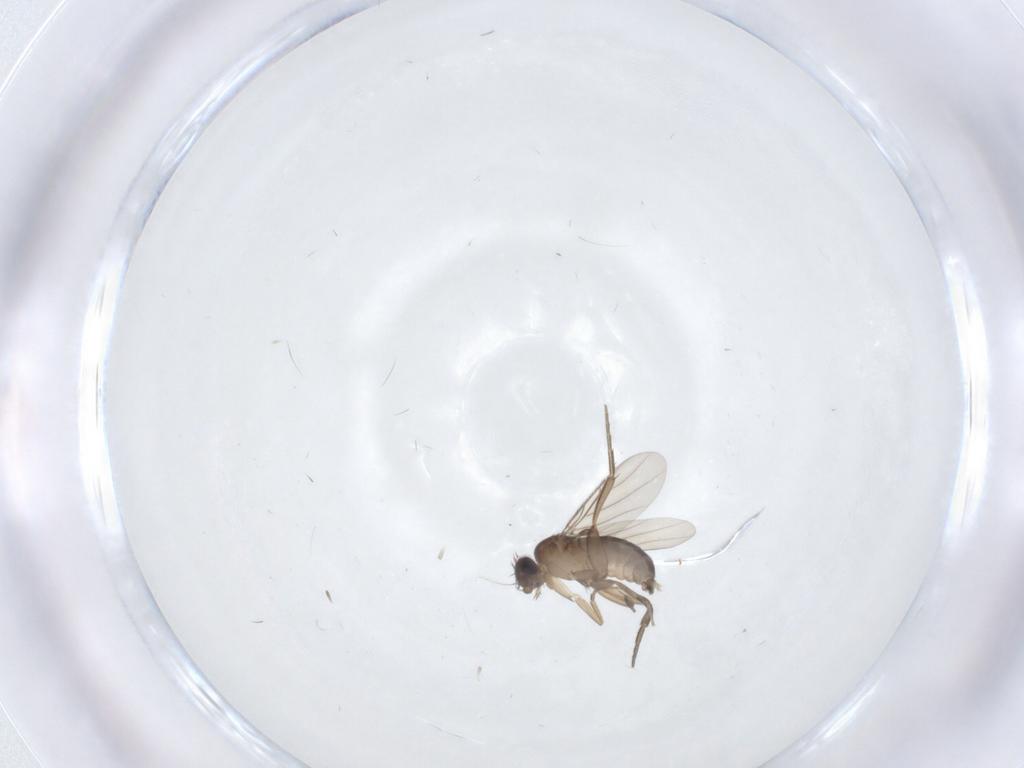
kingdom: Animalia
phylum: Arthropoda
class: Insecta
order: Diptera
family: Phoridae
